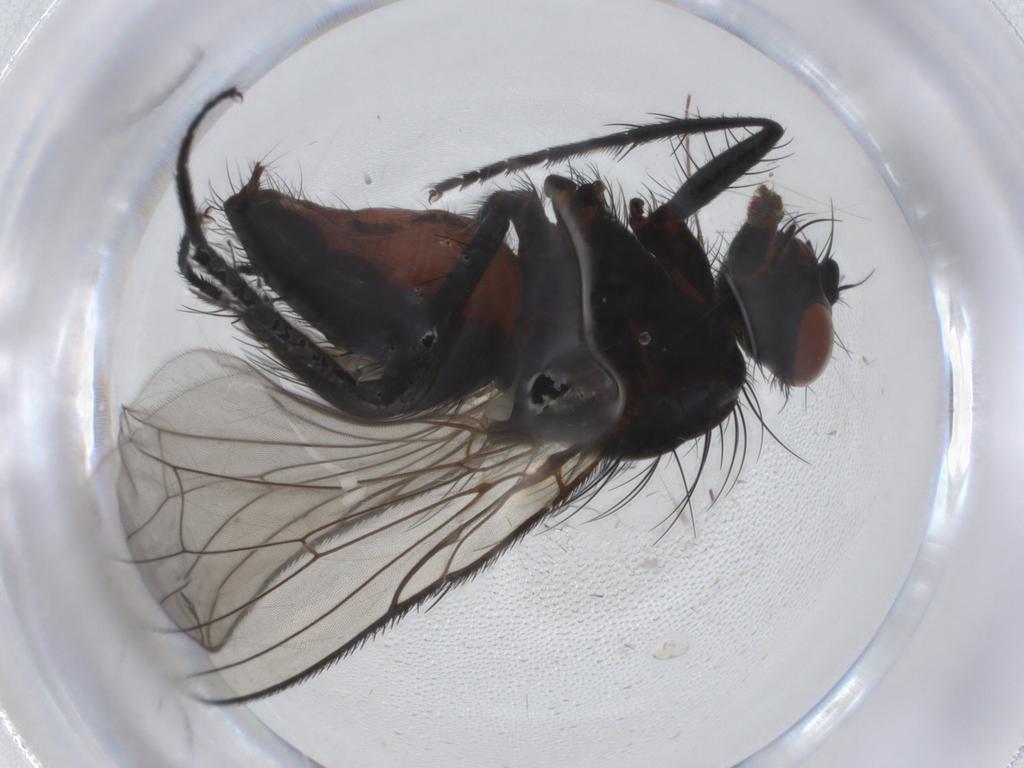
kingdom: Animalia
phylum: Arthropoda
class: Insecta
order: Diptera
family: Anthomyiidae
